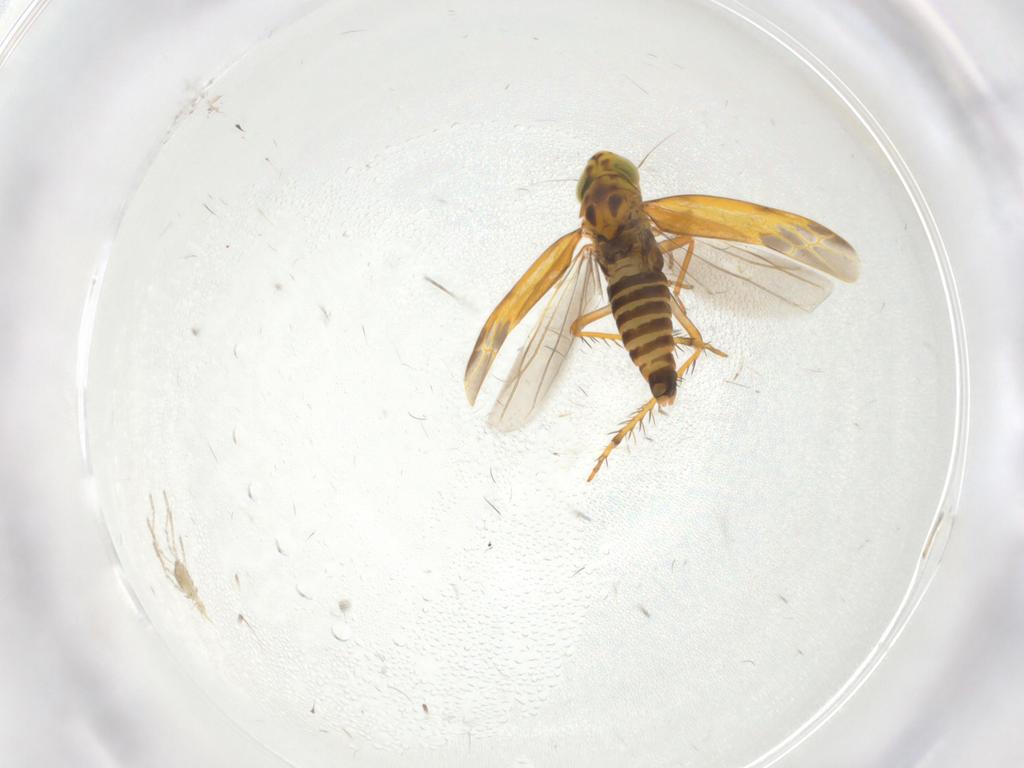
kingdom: Animalia
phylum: Arthropoda
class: Insecta
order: Hemiptera
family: Cicadellidae
